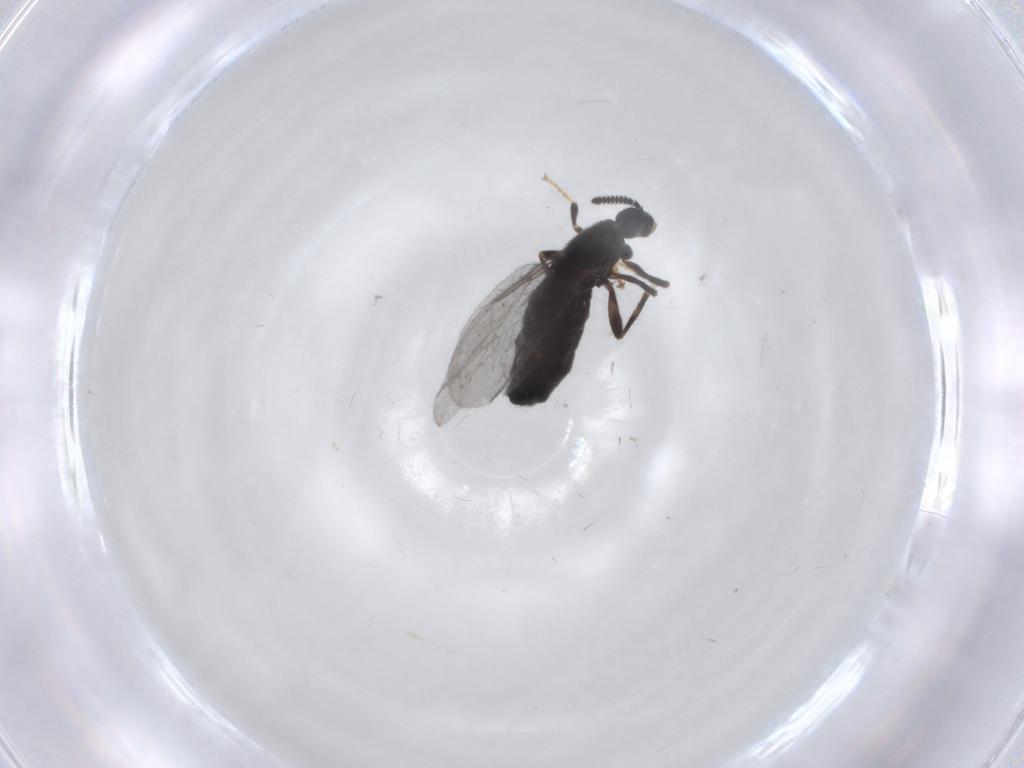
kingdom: Animalia
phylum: Arthropoda
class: Insecta
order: Diptera
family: Scatopsidae
